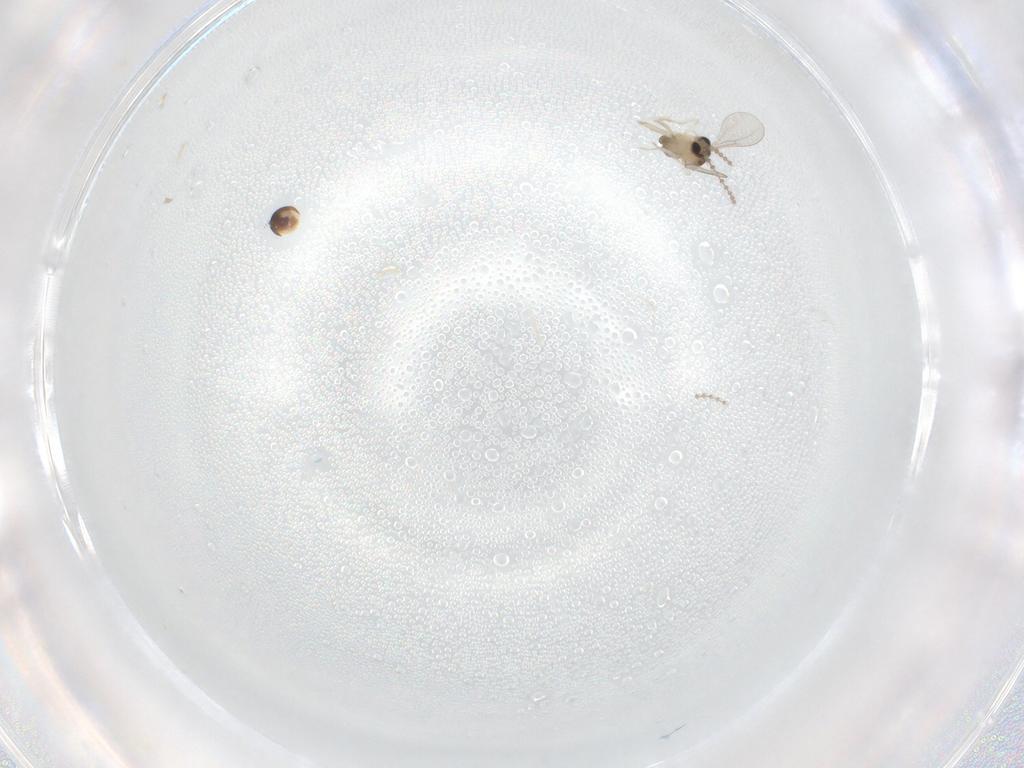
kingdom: Animalia
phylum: Arthropoda
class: Insecta
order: Diptera
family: Cecidomyiidae
